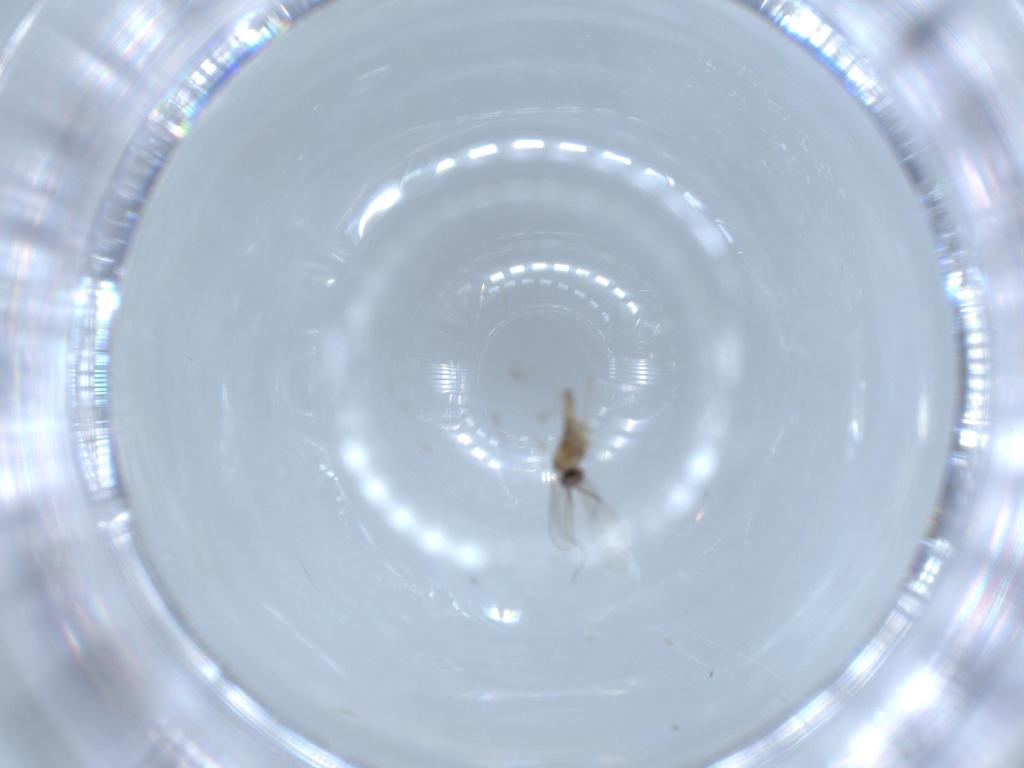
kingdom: Animalia
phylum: Arthropoda
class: Insecta
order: Diptera
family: Cecidomyiidae
